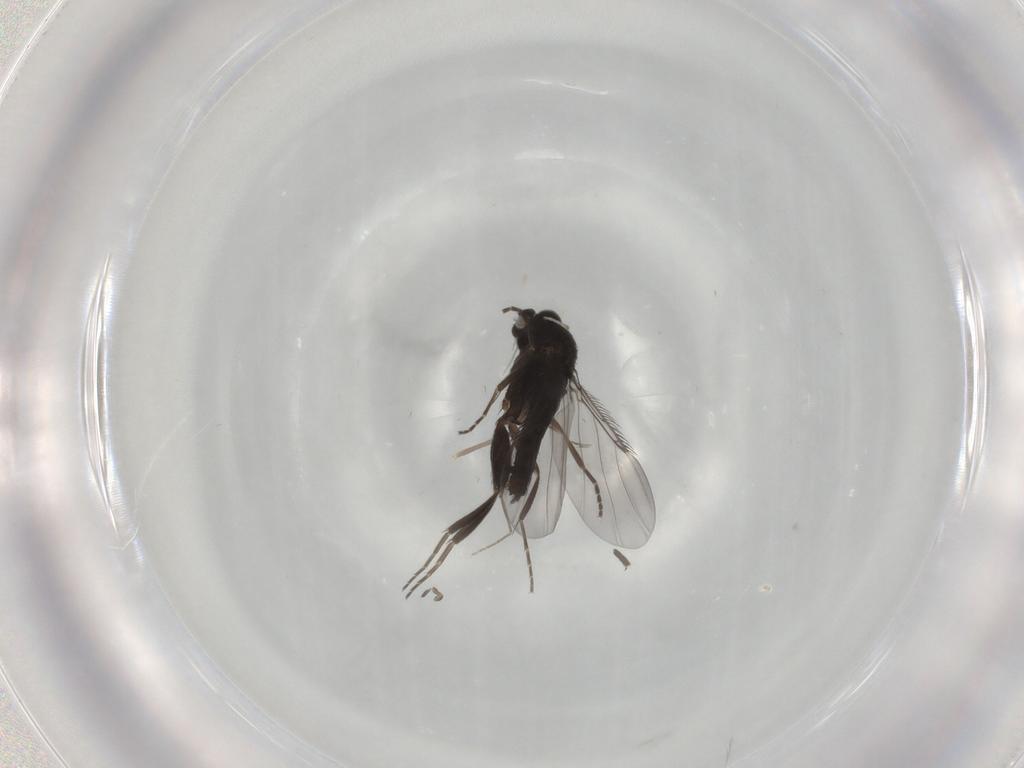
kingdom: Animalia
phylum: Arthropoda
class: Insecta
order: Diptera
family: Phoridae
